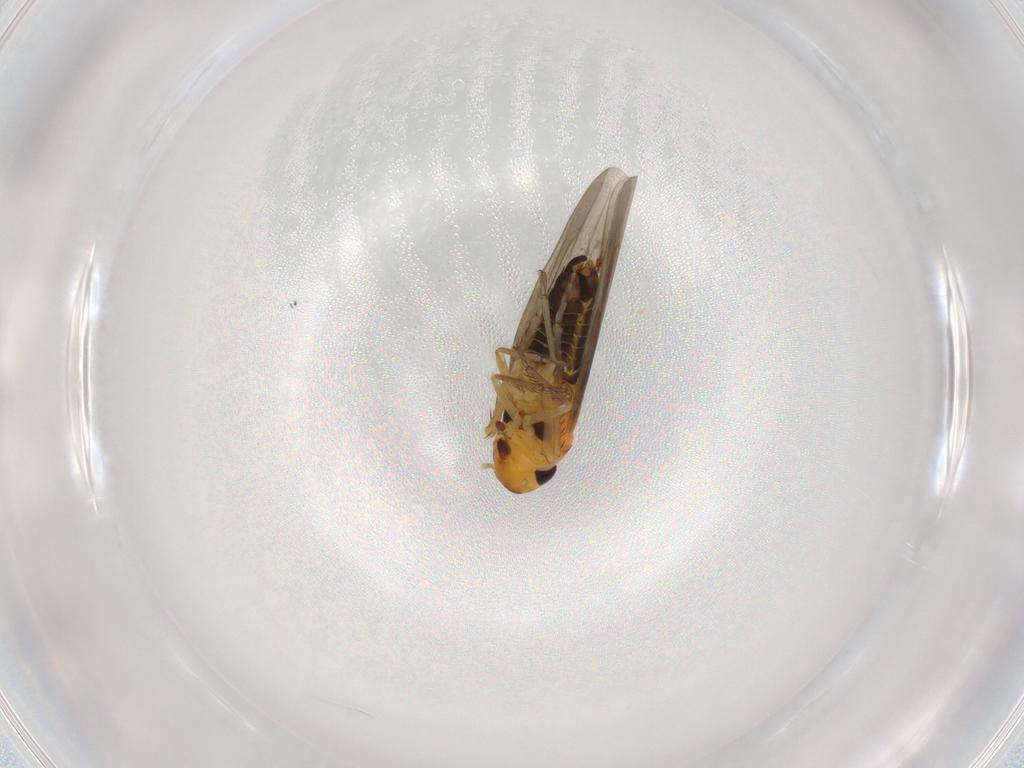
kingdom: Animalia
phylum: Arthropoda
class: Insecta
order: Hemiptera
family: Cicadellidae
